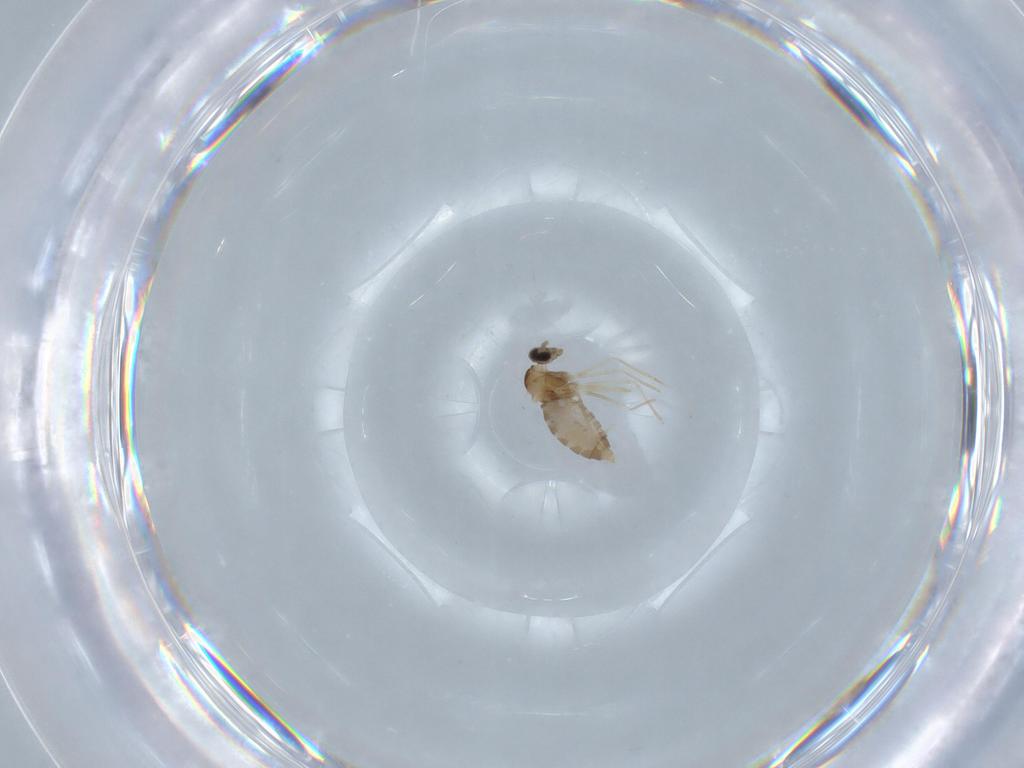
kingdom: Animalia
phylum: Arthropoda
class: Insecta
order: Diptera
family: Cecidomyiidae
